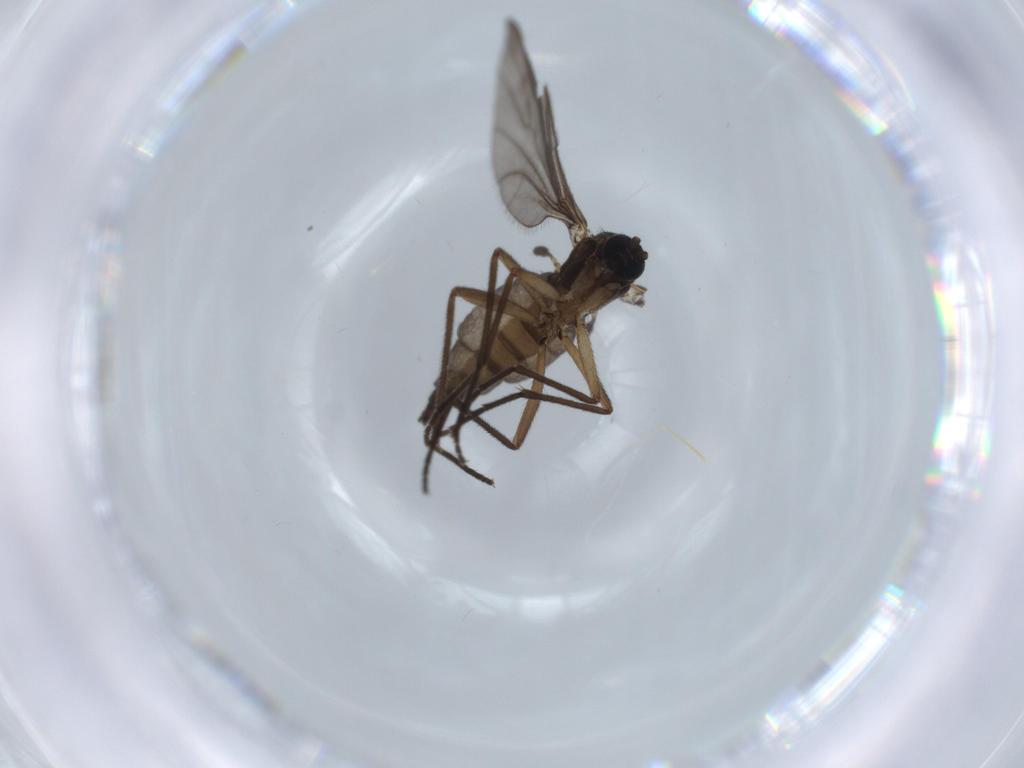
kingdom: Animalia
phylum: Arthropoda
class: Insecta
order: Diptera
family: Sciaridae
